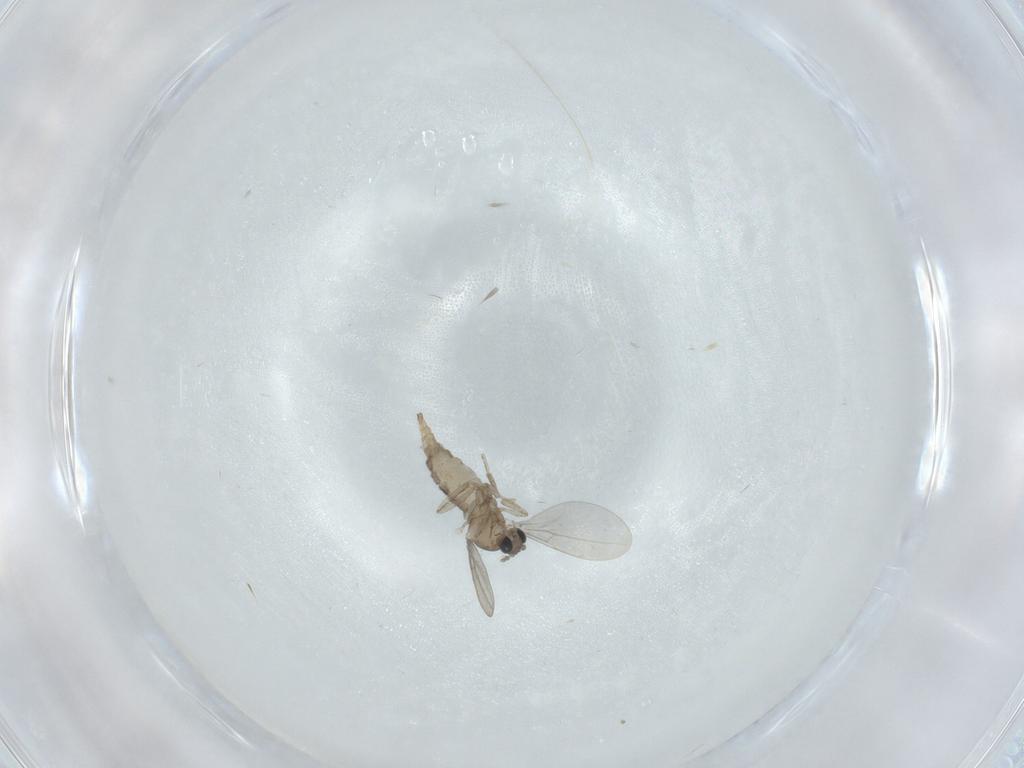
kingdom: Animalia
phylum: Arthropoda
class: Insecta
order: Diptera
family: Cecidomyiidae
